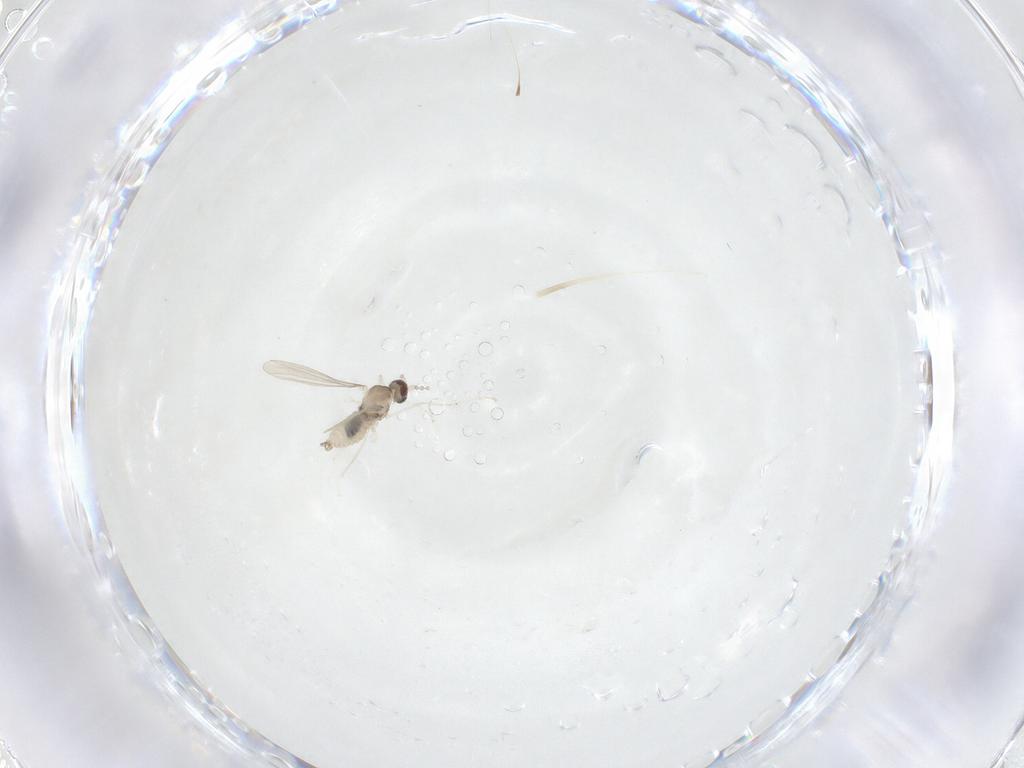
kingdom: Animalia
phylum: Arthropoda
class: Insecta
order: Diptera
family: Cecidomyiidae
